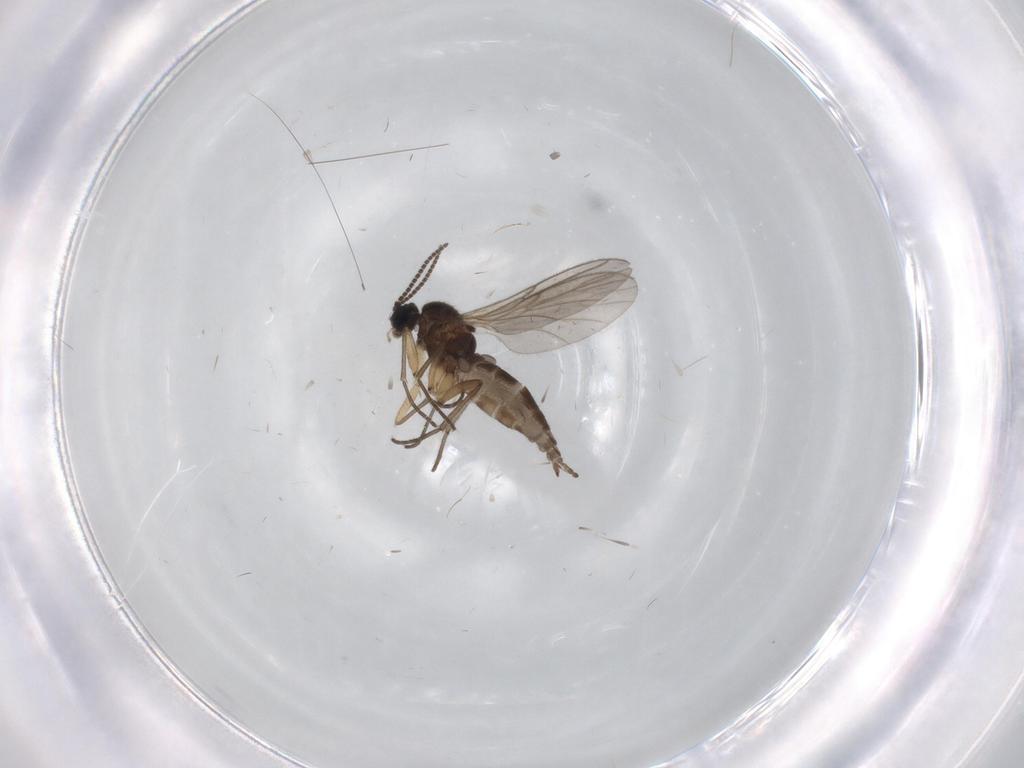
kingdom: Animalia
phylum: Arthropoda
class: Insecta
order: Diptera
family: Sciaridae
